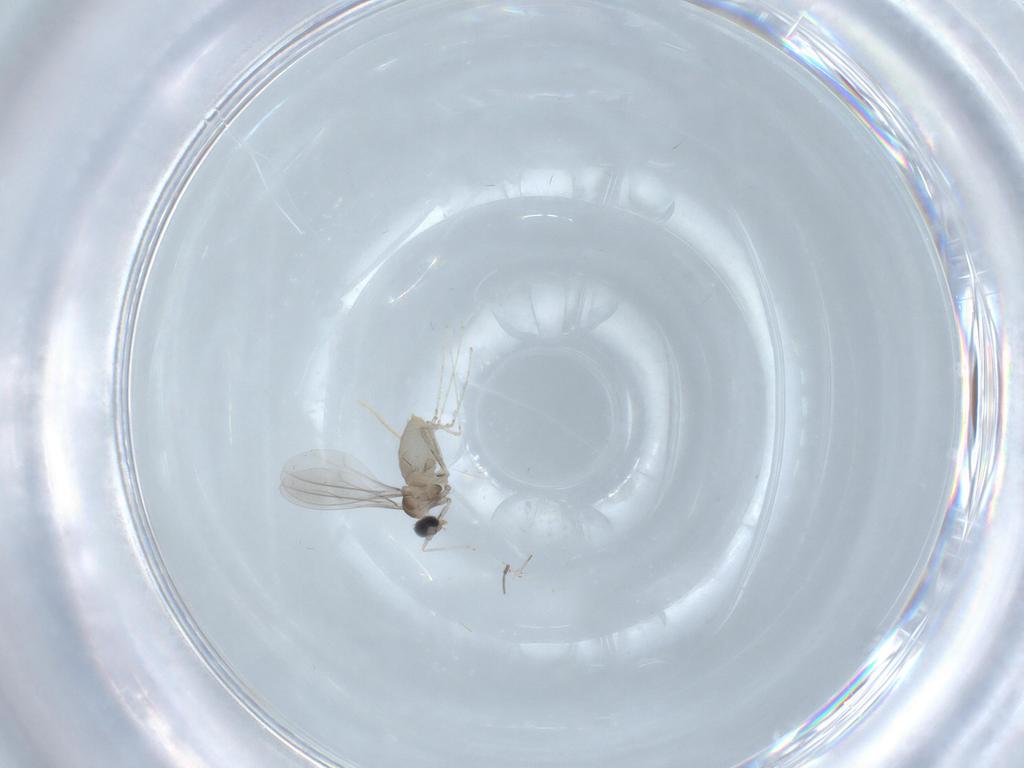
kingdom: Animalia
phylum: Arthropoda
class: Insecta
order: Diptera
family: Cecidomyiidae
